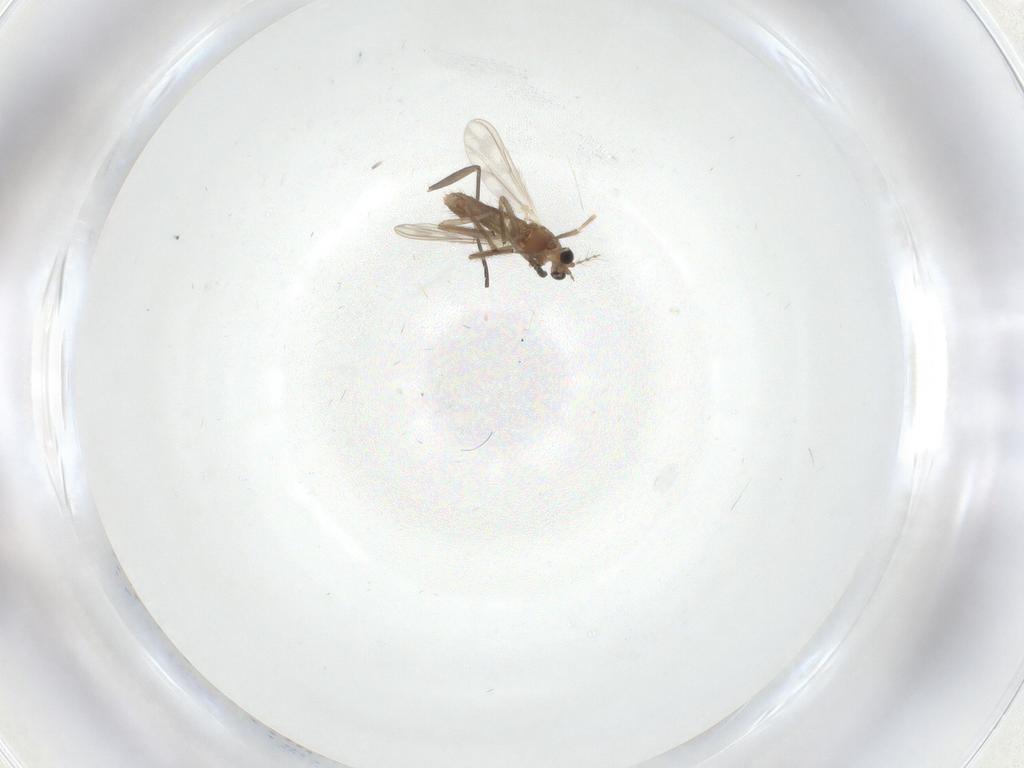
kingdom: Animalia
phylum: Arthropoda
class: Insecta
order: Diptera
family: Chironomidae
